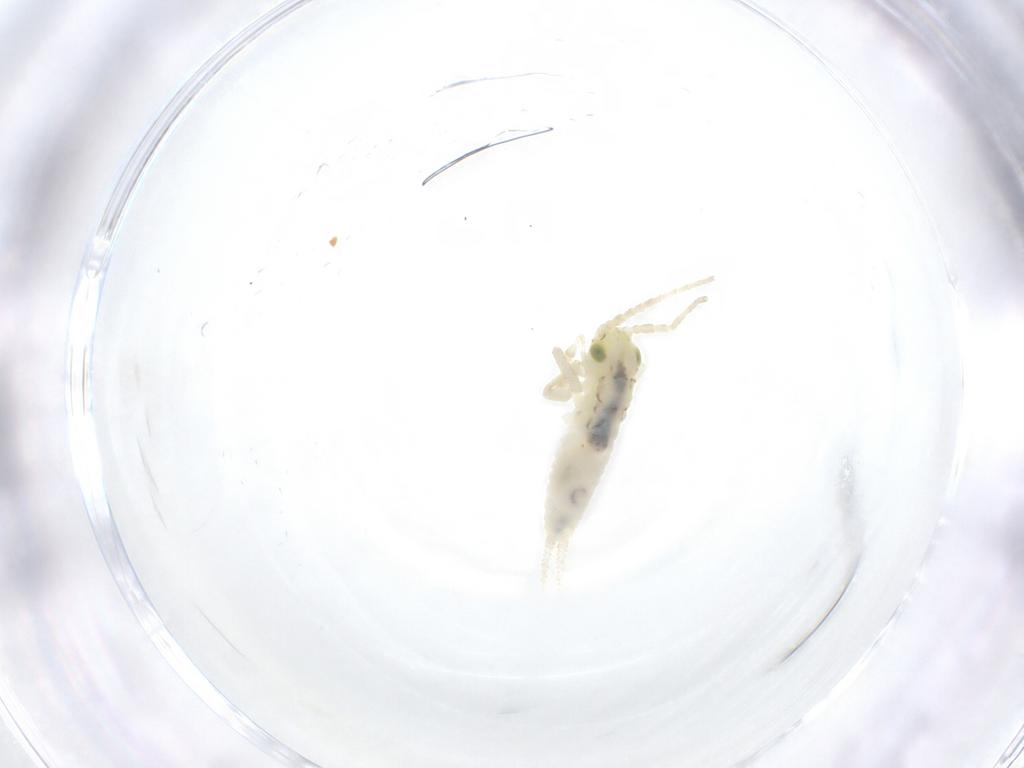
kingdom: Animalia
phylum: Arthropoda
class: Insecta
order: Orthoptera
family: Trigonidiidae
